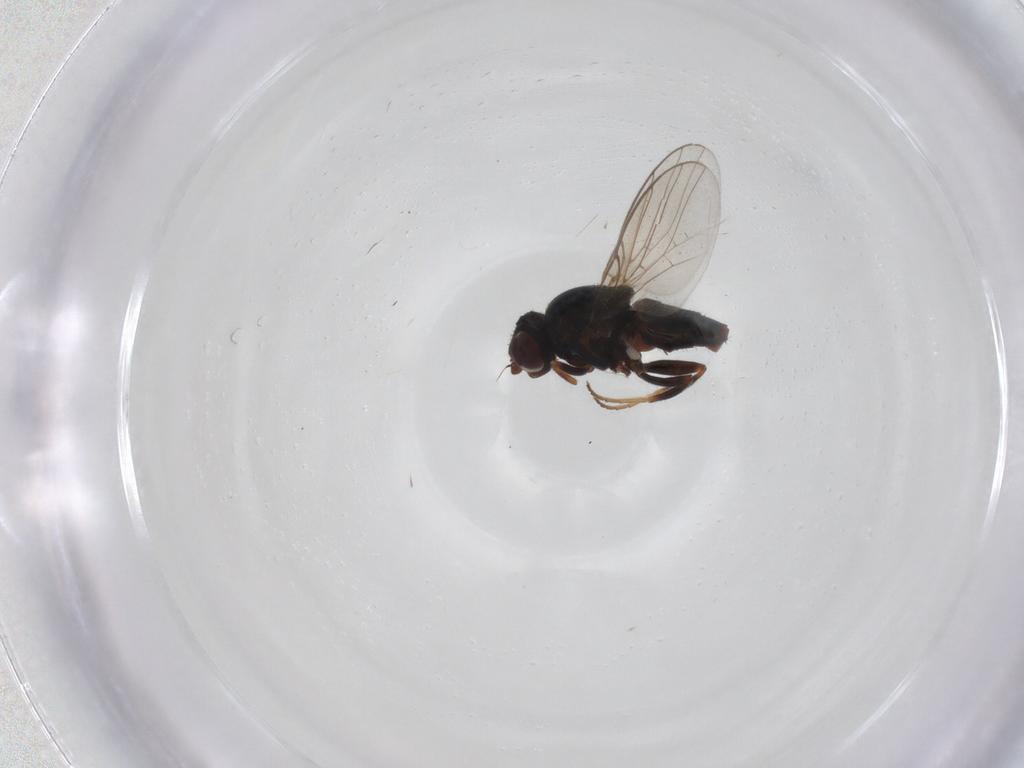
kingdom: Animalia
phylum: Arthropoda
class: Insecta
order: Diptera
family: Chloropidae
